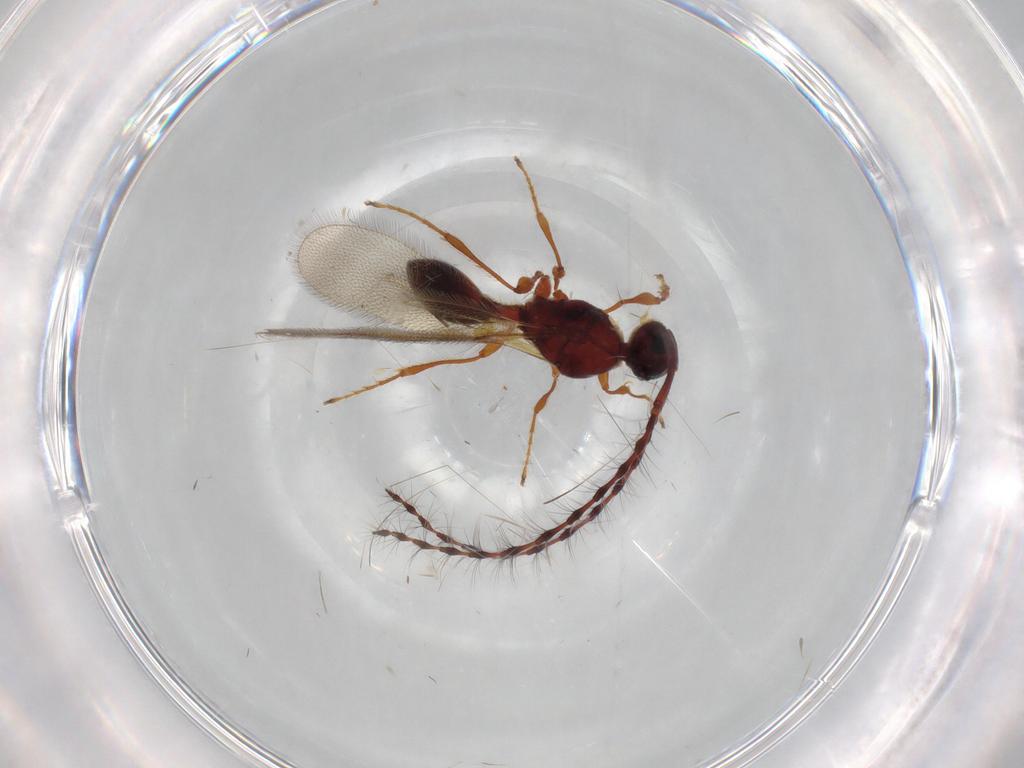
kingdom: Animalia
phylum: Arthropoda
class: Insecta
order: Hymenoptera
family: Diapriidae
